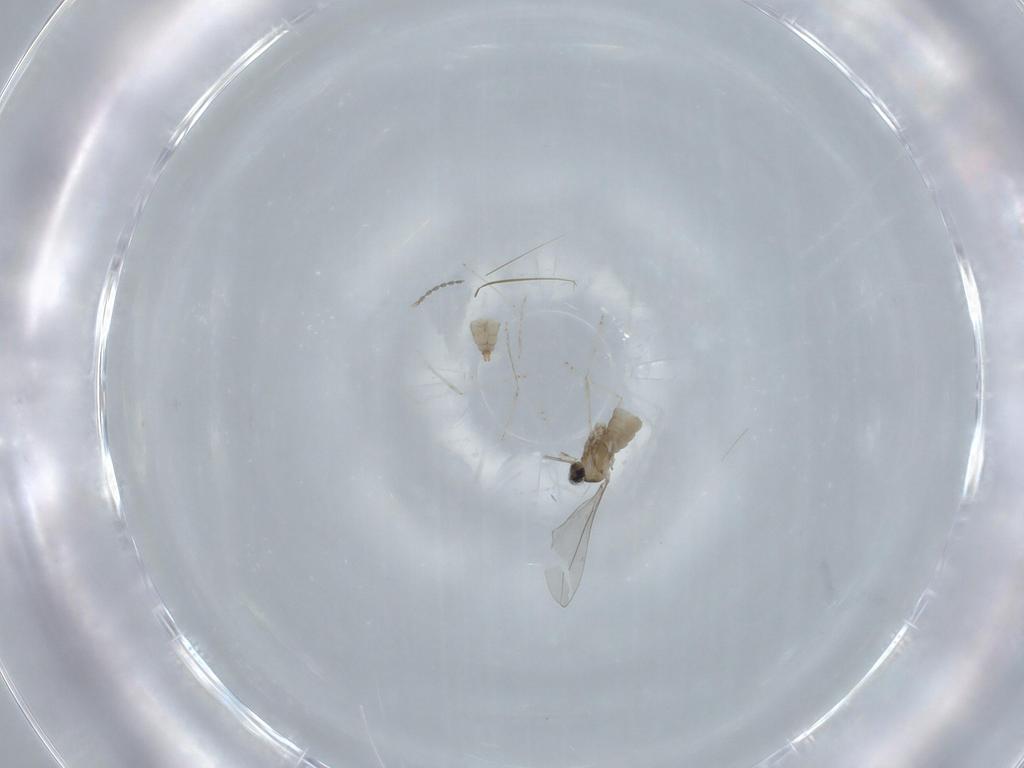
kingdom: Animalia
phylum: Arthropoda
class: Insecta
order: Diptera
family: Cecidomyiidae
